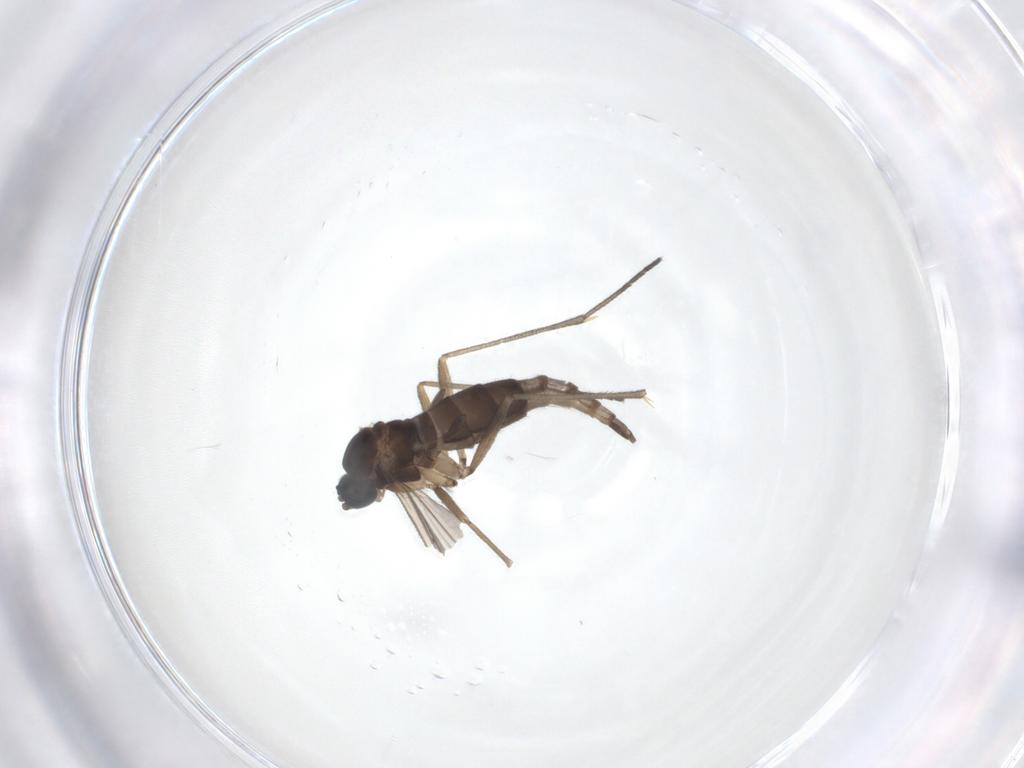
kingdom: Animalia
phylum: Arthropoda
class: Insecta
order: Diptera
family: Sciaridae
